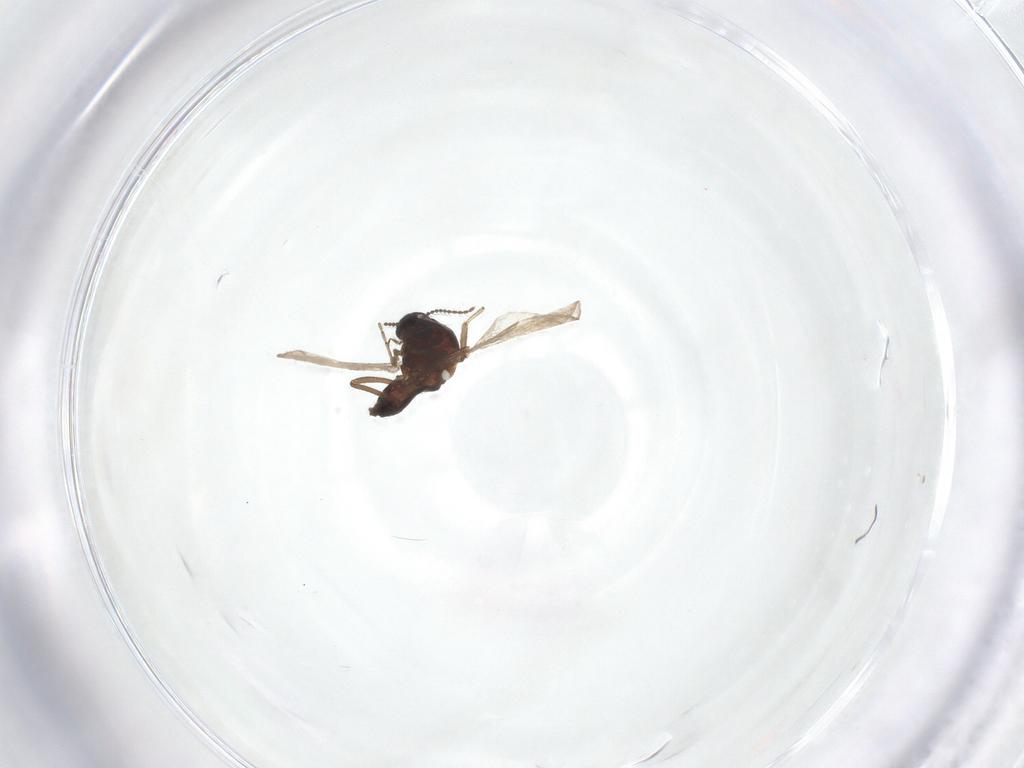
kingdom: Animalia
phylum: Arthropoda
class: Insecta
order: Diptera
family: Ceratopogonidae
